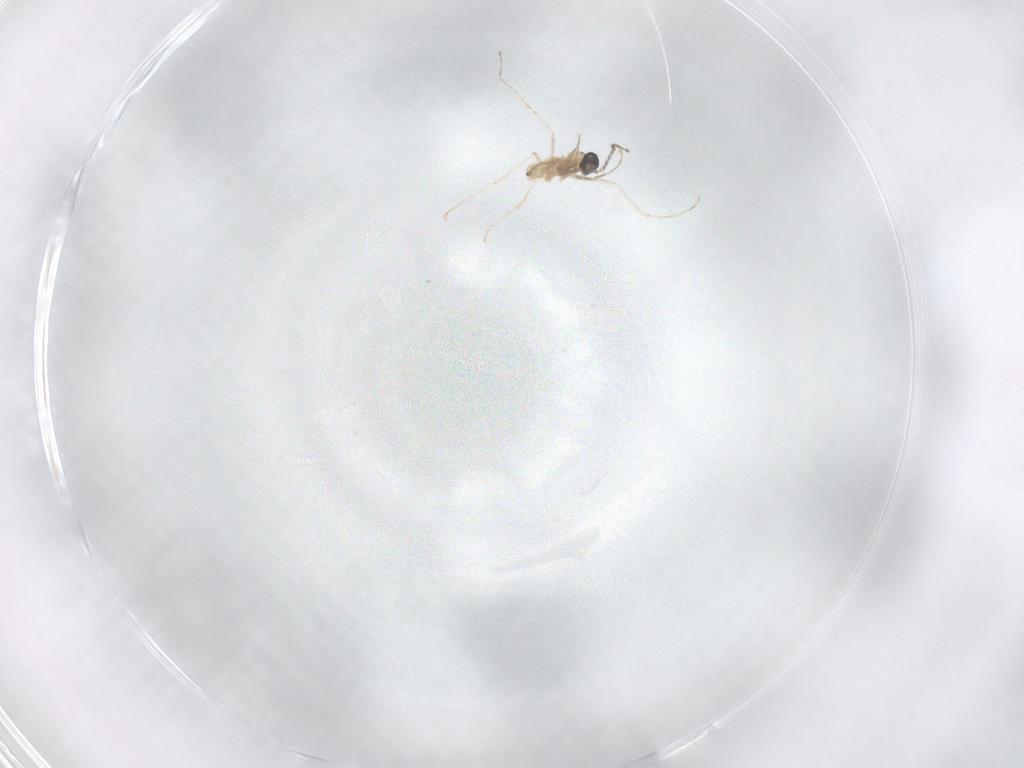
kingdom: Animalia
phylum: Arthropoda
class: Insecta
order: Diptera
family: Cecidomyiidae
